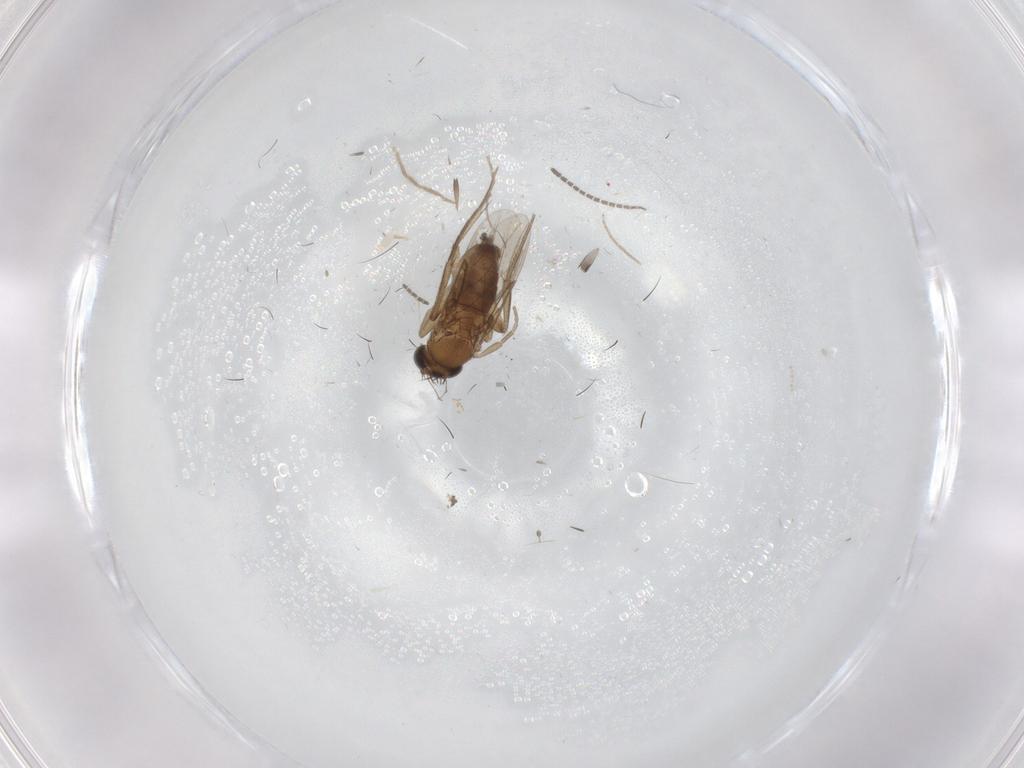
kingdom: Animalia
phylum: Arthropoda
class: Insecta
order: Diptera
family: Phoridae
